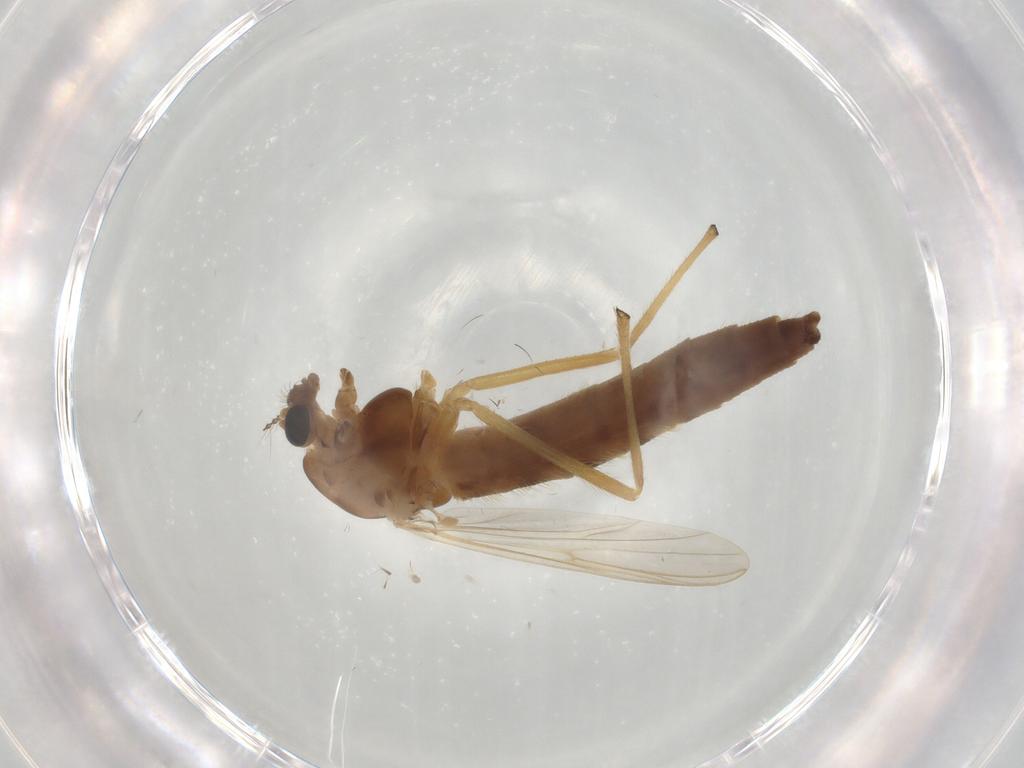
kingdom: Animalia
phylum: Arthropoda
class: Insecta
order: Diptera
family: Chironomidae
